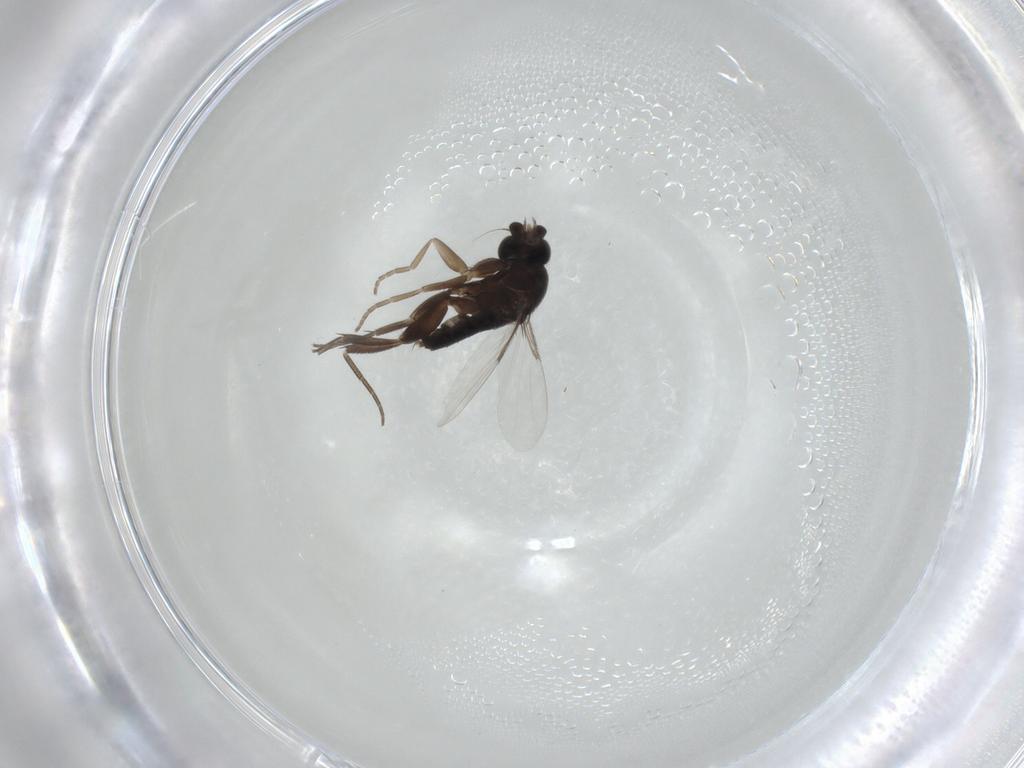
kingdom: Animalia
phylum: Arthropoda
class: Insecta
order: Diptera
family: Phoridae
